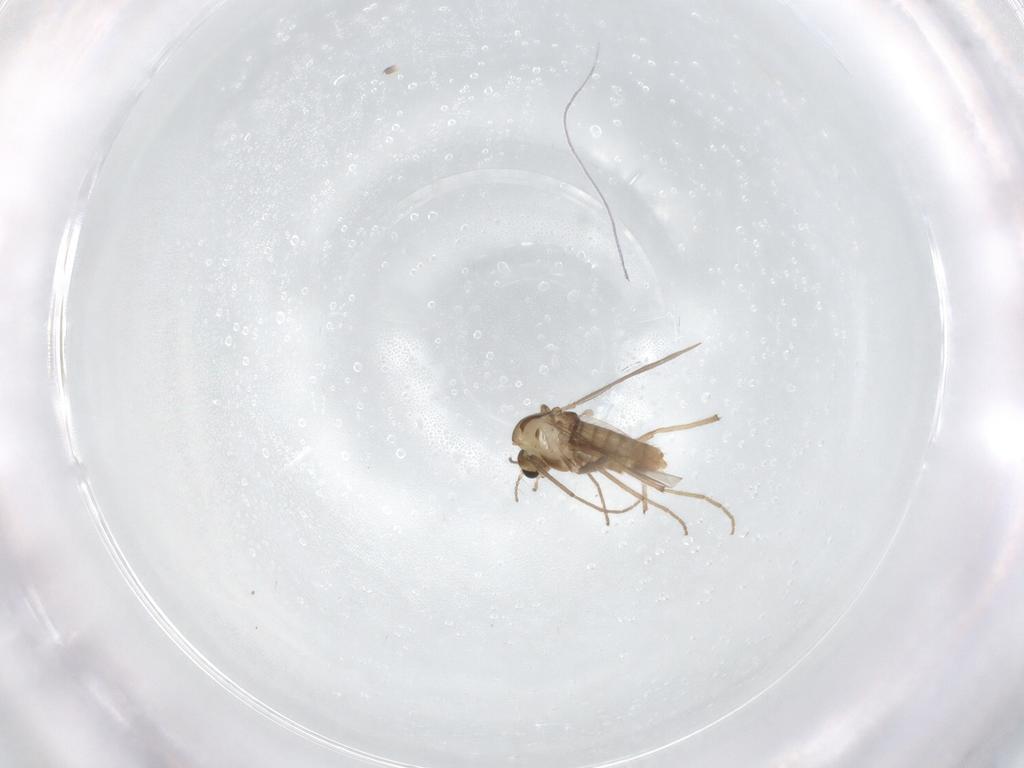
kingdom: Animalia
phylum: Arthropoda
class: Insecta
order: Diptera
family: Chironomidae
